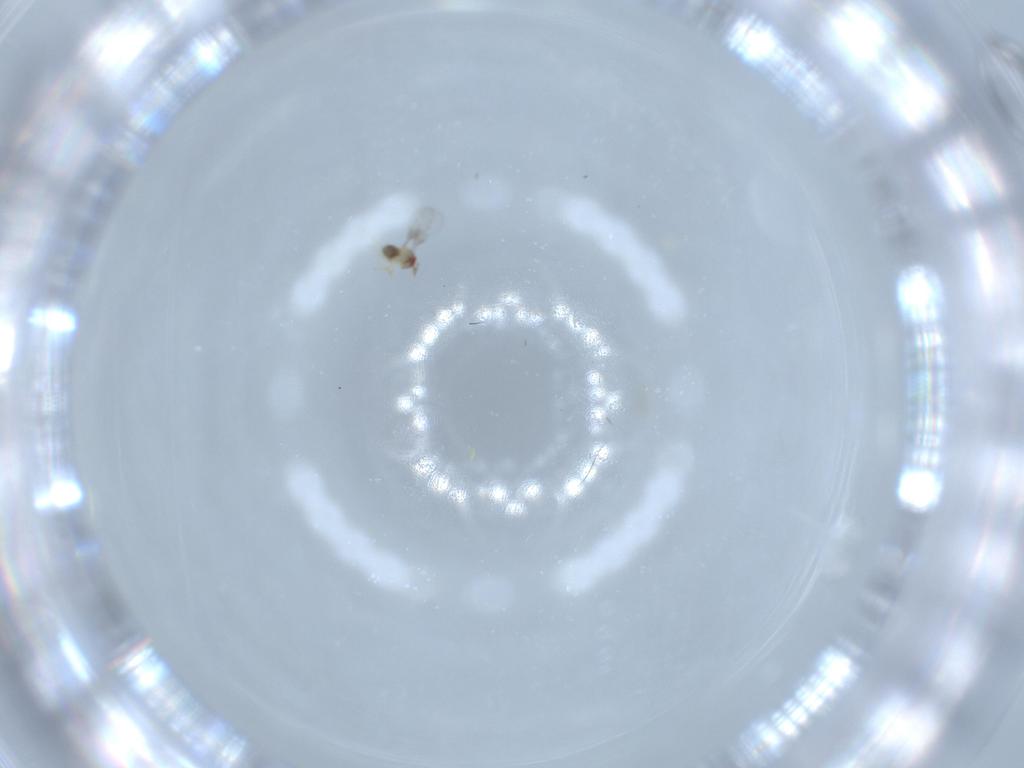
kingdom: Animalia
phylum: Arthropoda
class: Insecta
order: Hymenoptera
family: Trichogrammatidae
